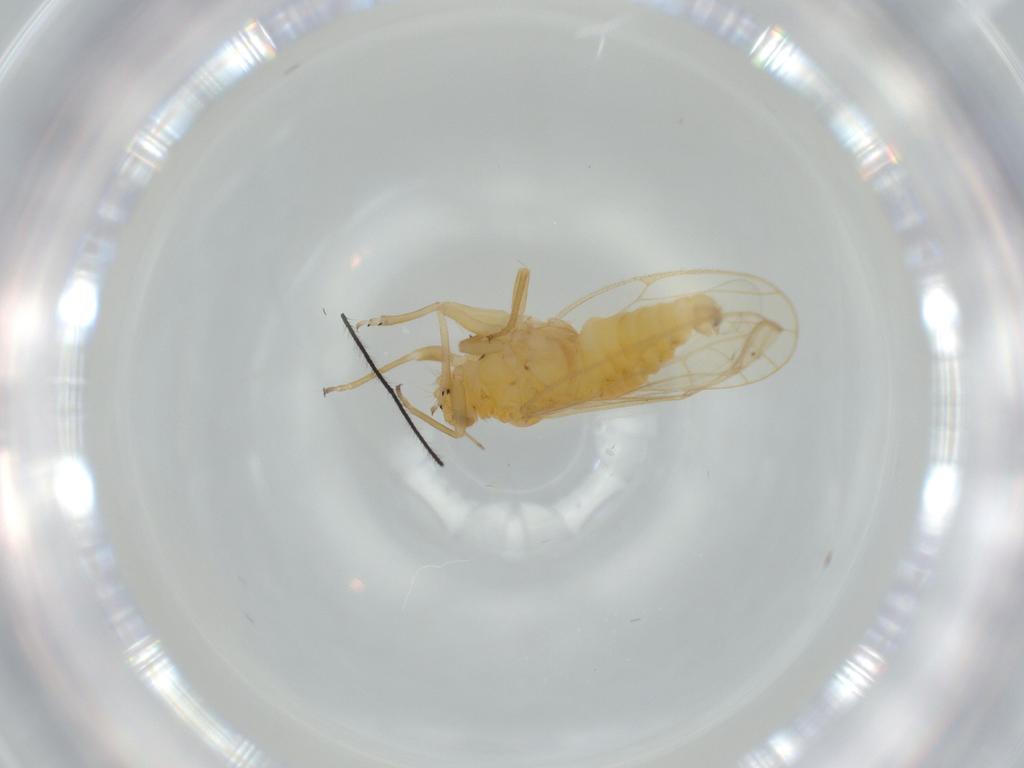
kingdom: Animalia
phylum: Arthropoda
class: Insecta
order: Hemiptera
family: Psyllidae
